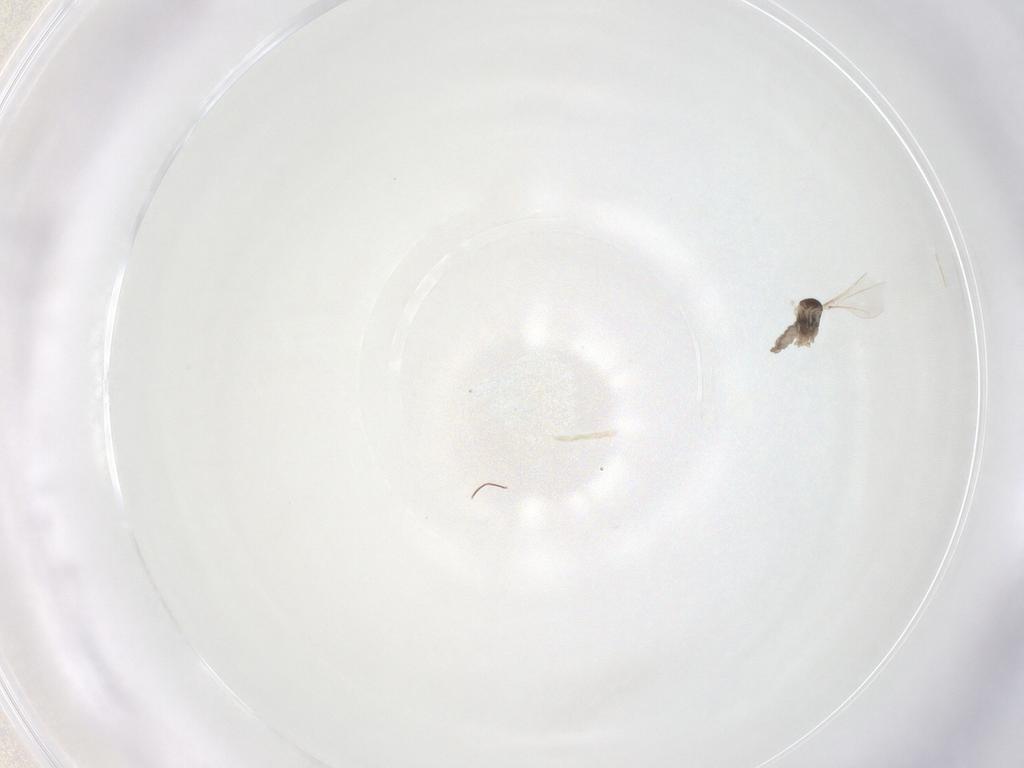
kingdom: Animalia
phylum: Arthropoda
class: Insecta
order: Diptera
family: Cecidomyiidae
